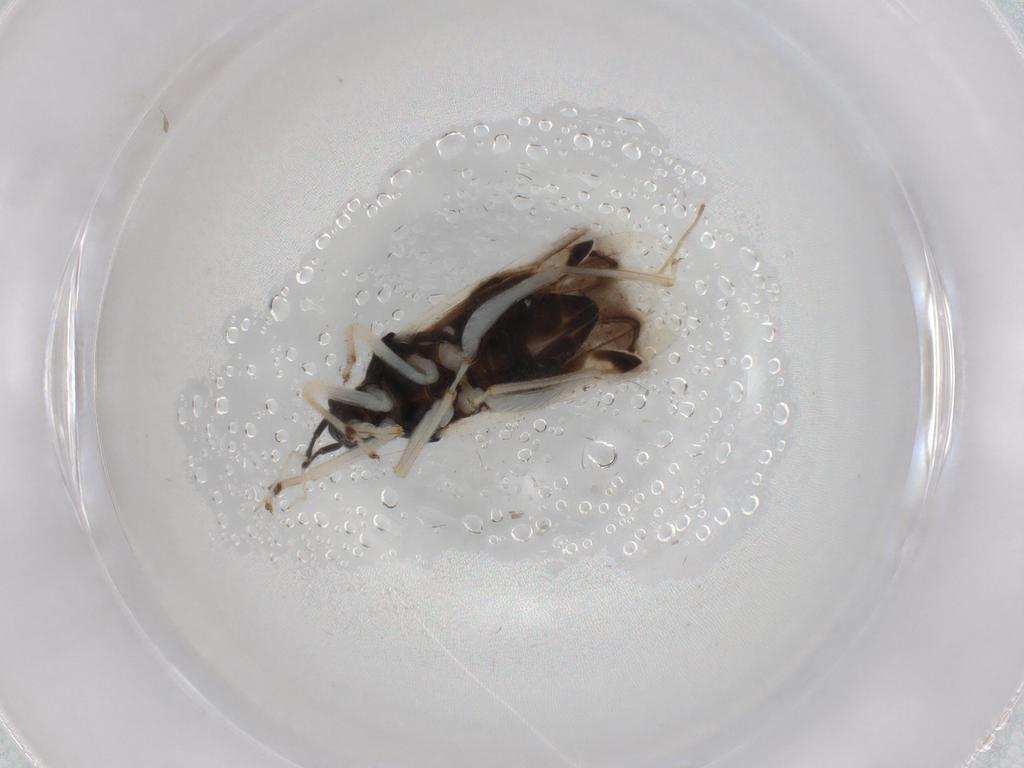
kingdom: Animalia
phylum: Arthropoda
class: Insecta
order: Hemiptera
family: Miridae
